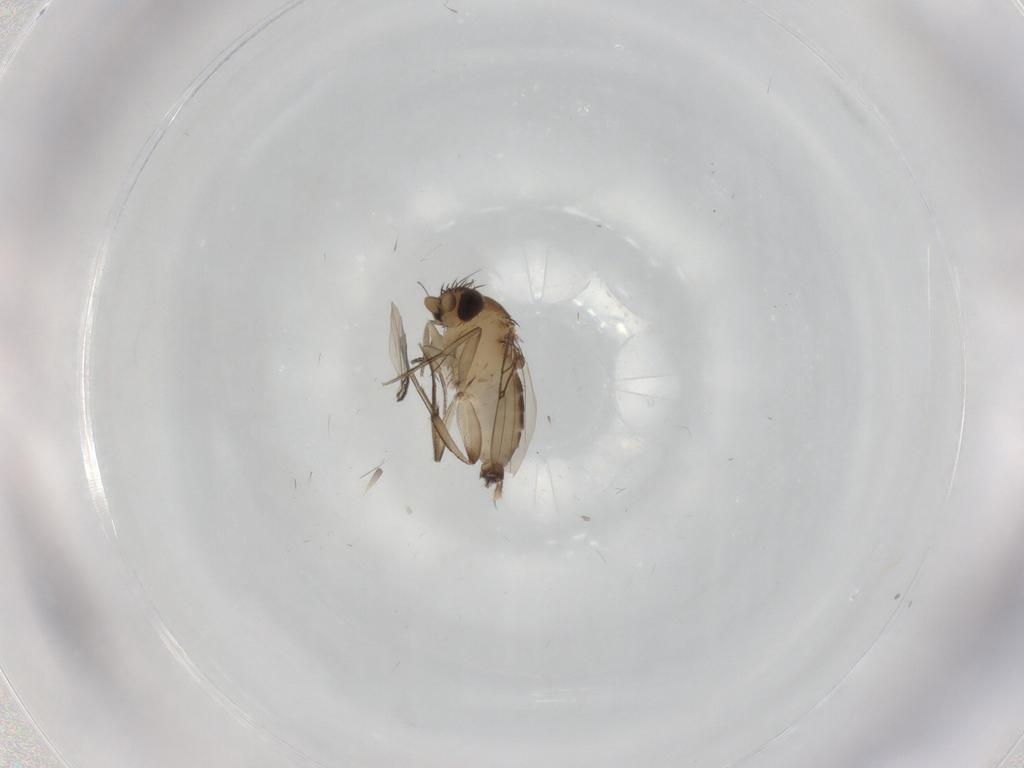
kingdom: Animalia
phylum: Arthropoda
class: Insecta
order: Diptera
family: Phoridae
